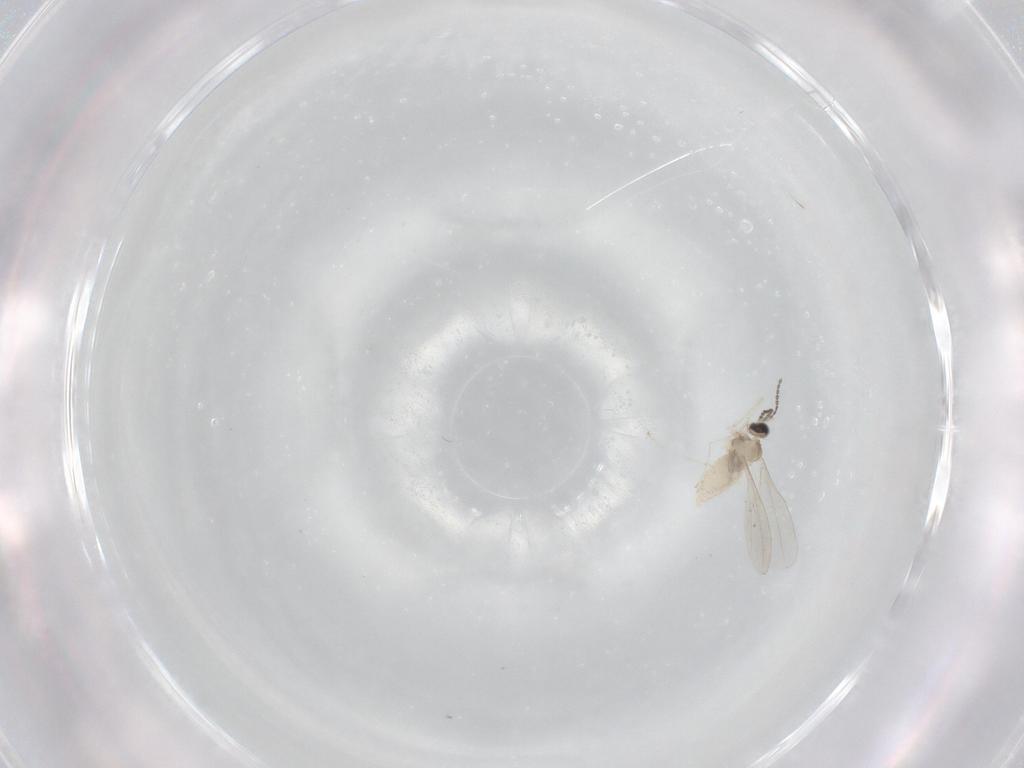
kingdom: Animalia
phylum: Arthropoda
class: Insecta
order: Diptera
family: Cecidomyiidae
